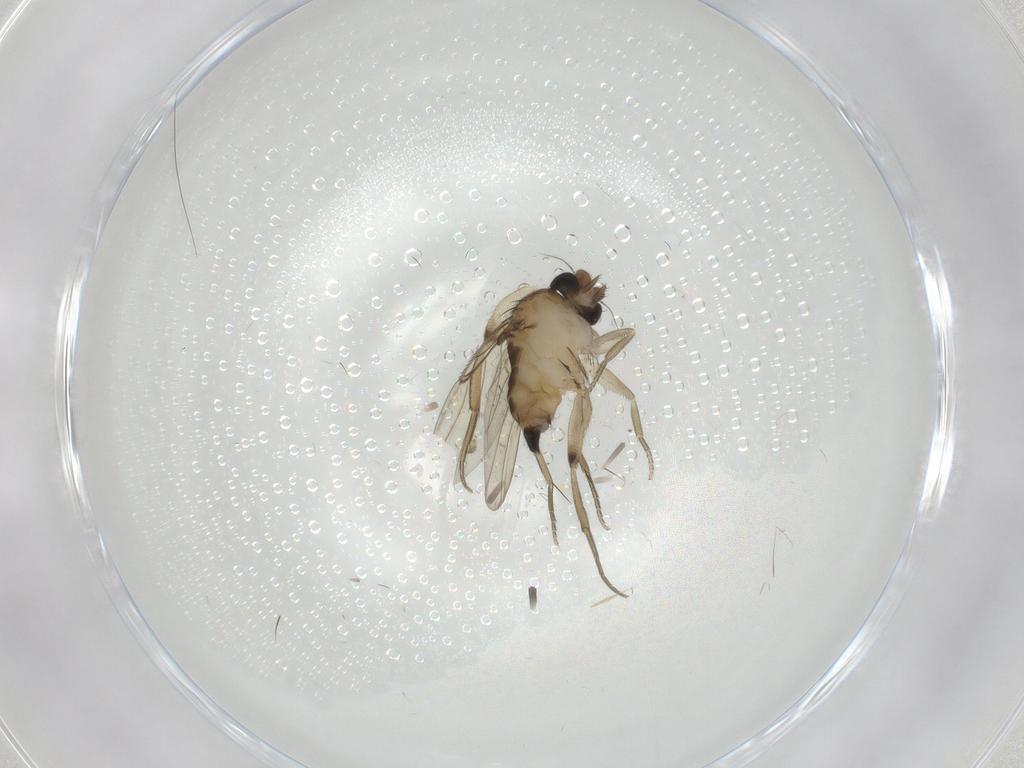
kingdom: Animalia
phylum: Arthropoda
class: Insecta
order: Diptera
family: Phoridae
